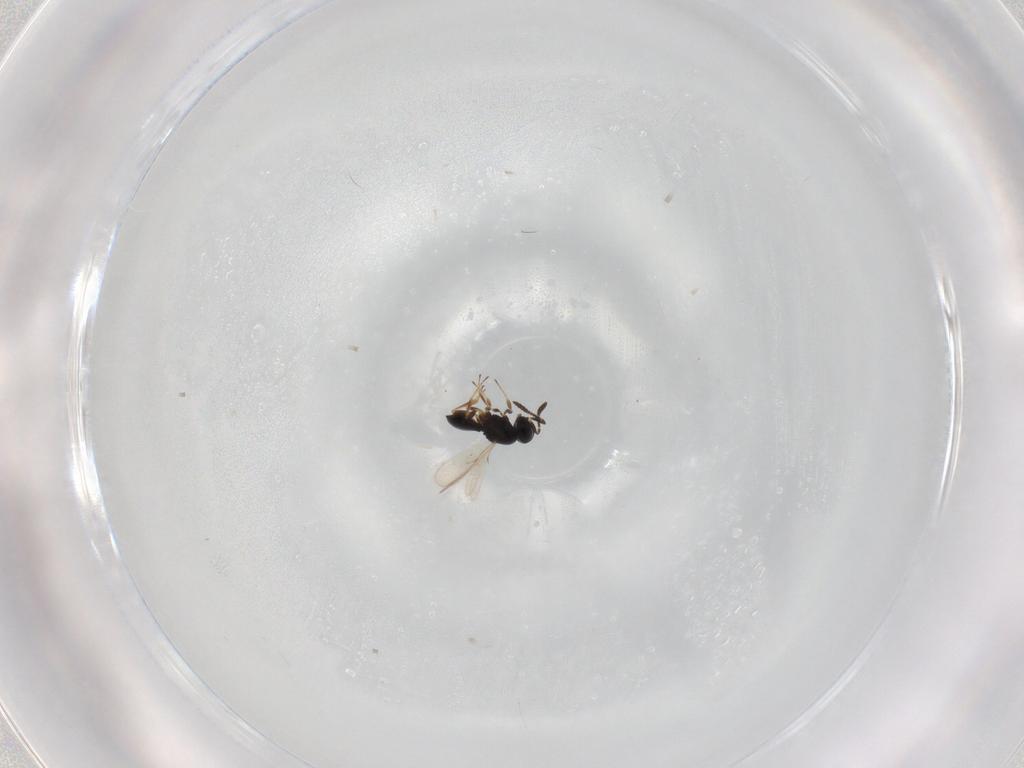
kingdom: Animalia
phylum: Arthropoda
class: Insecta
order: Hymenoptera
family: Scelionidae
